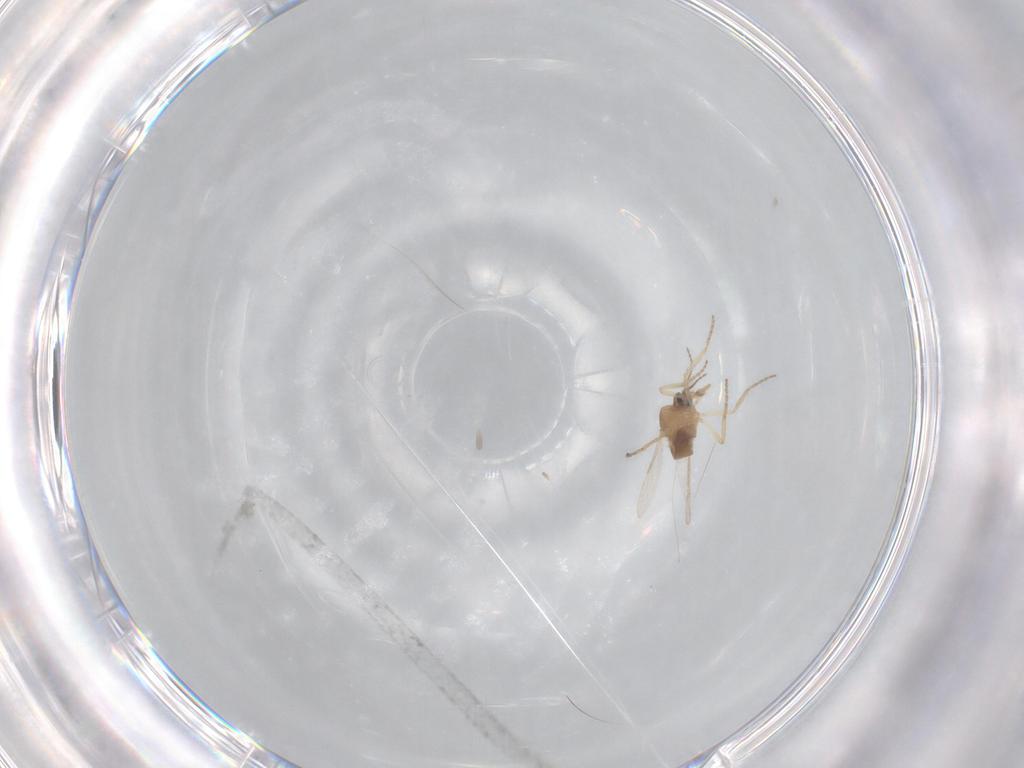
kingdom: Animalia
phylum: Arthropoda
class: Insecta
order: Diptera
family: Ceratopogonidae
